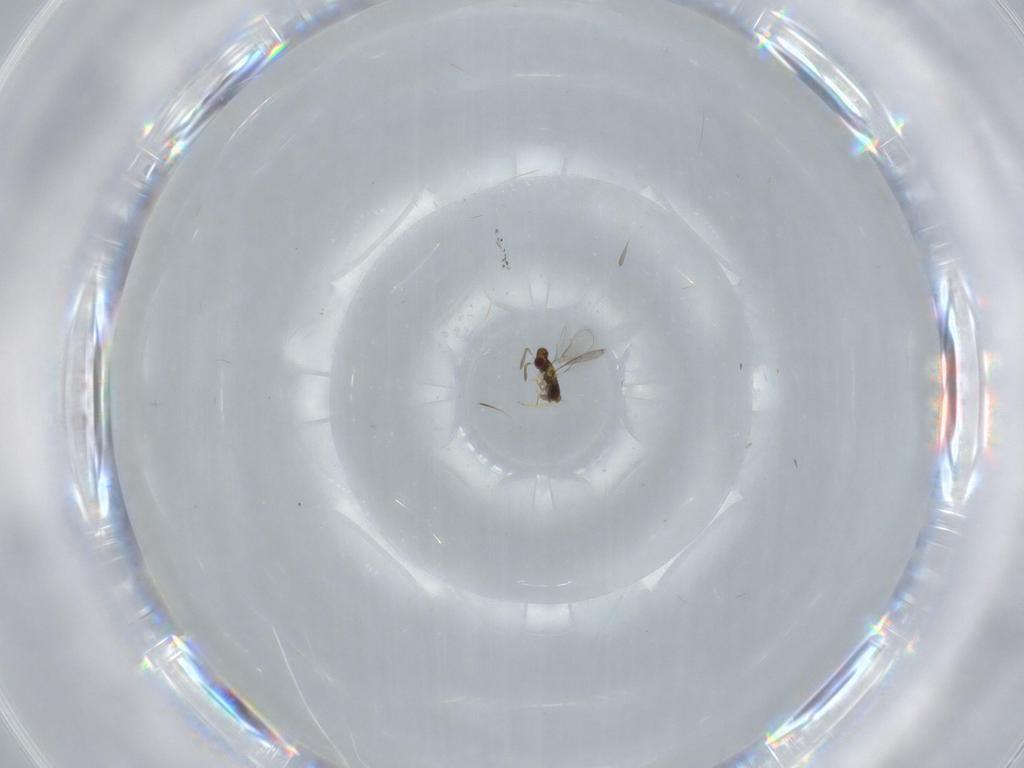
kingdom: Animalia
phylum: Arthropoda
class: Insecta
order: Hymenoptera
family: Aphelinidae
